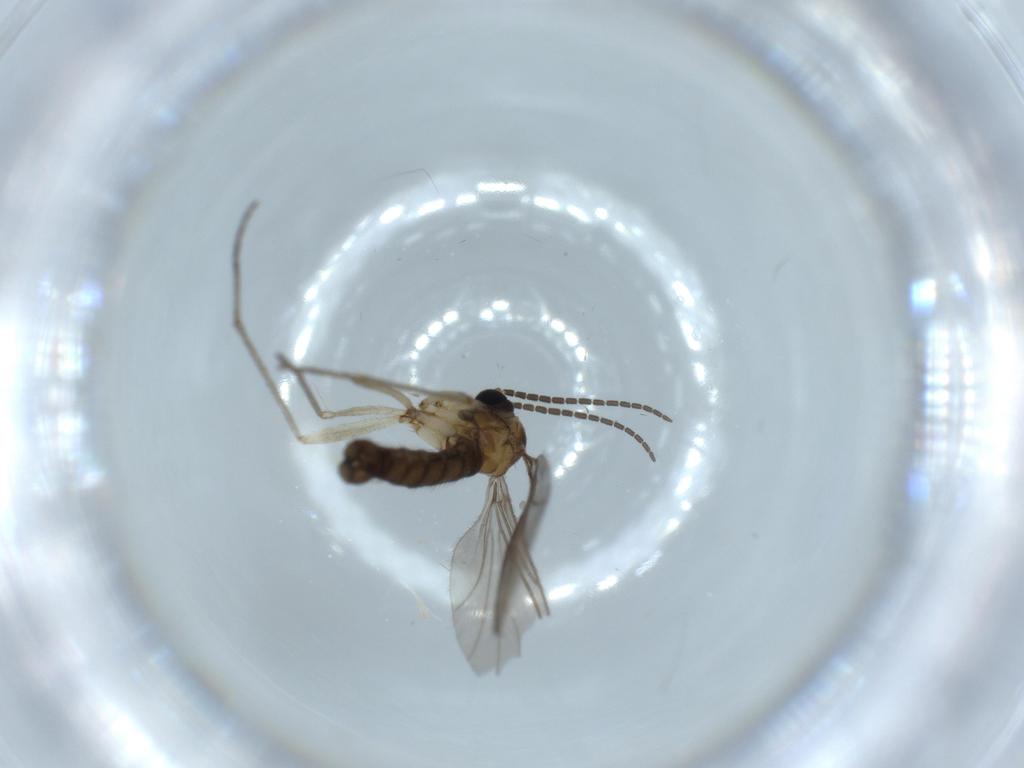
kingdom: Animalia
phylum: Arthropoda
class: Insecta
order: Diptera
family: Sciaridae
